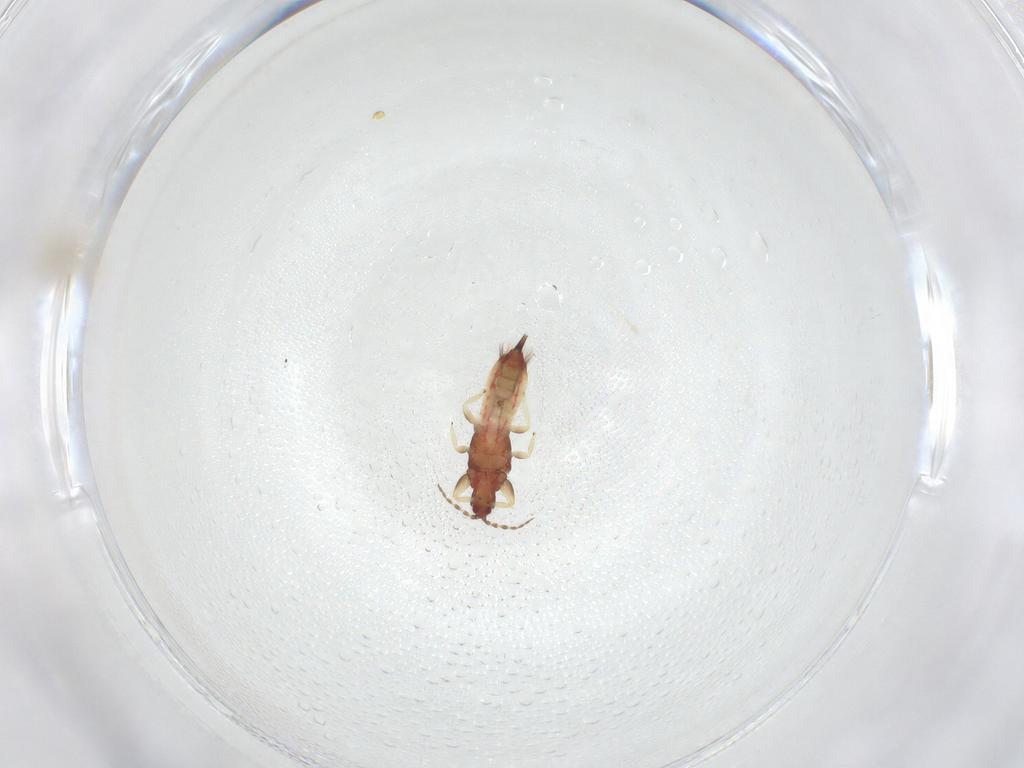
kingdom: Animalia
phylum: Arthropoda
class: Insecta
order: Thysanoptera
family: Phlaeothripidae
